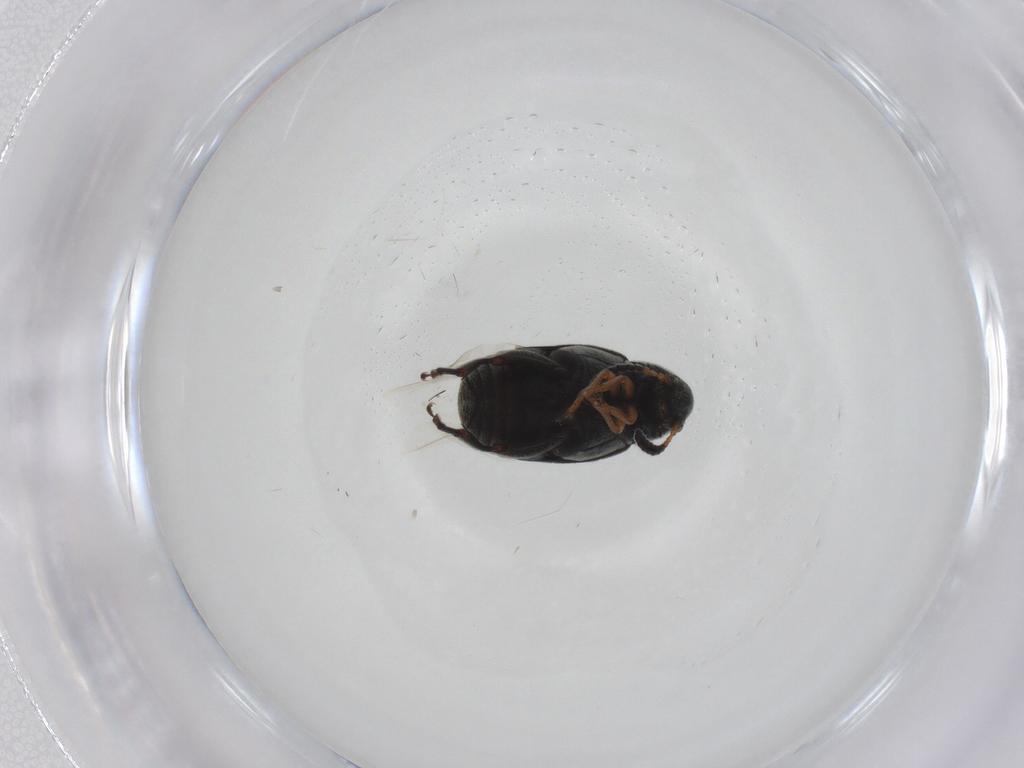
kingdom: Animalia
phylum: Arthropoda
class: Insecta
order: Coleoptera
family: Chrysomelidae
